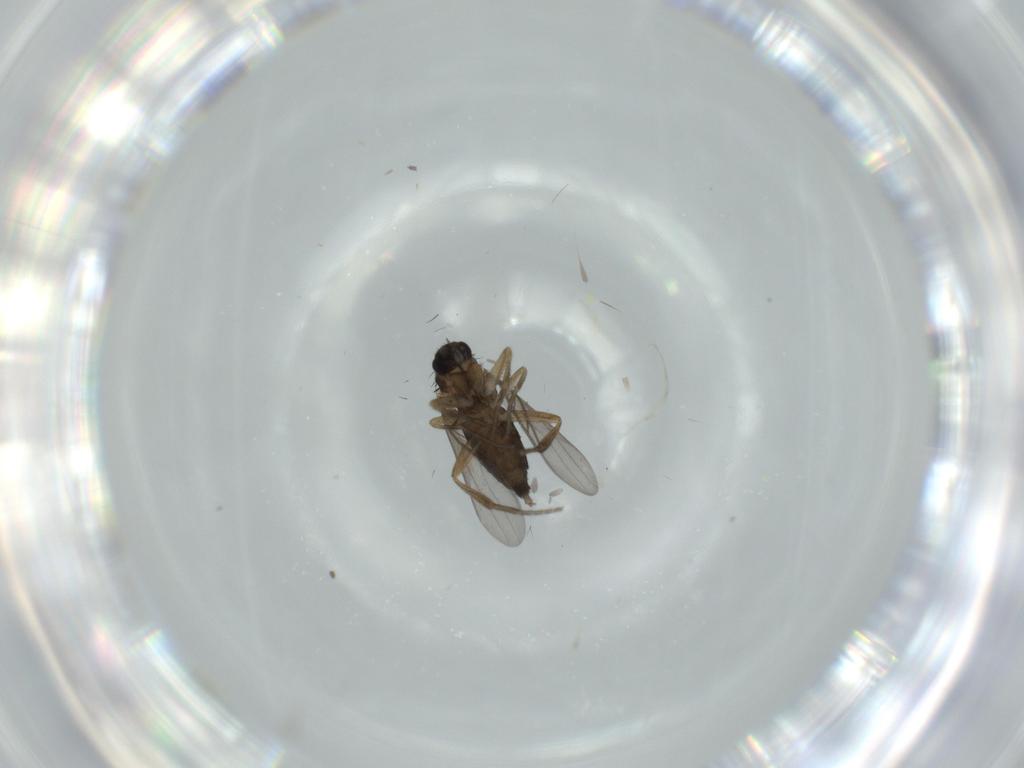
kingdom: Animalia
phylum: Arthropoda
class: Insecta
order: Diptera
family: Phoridae
